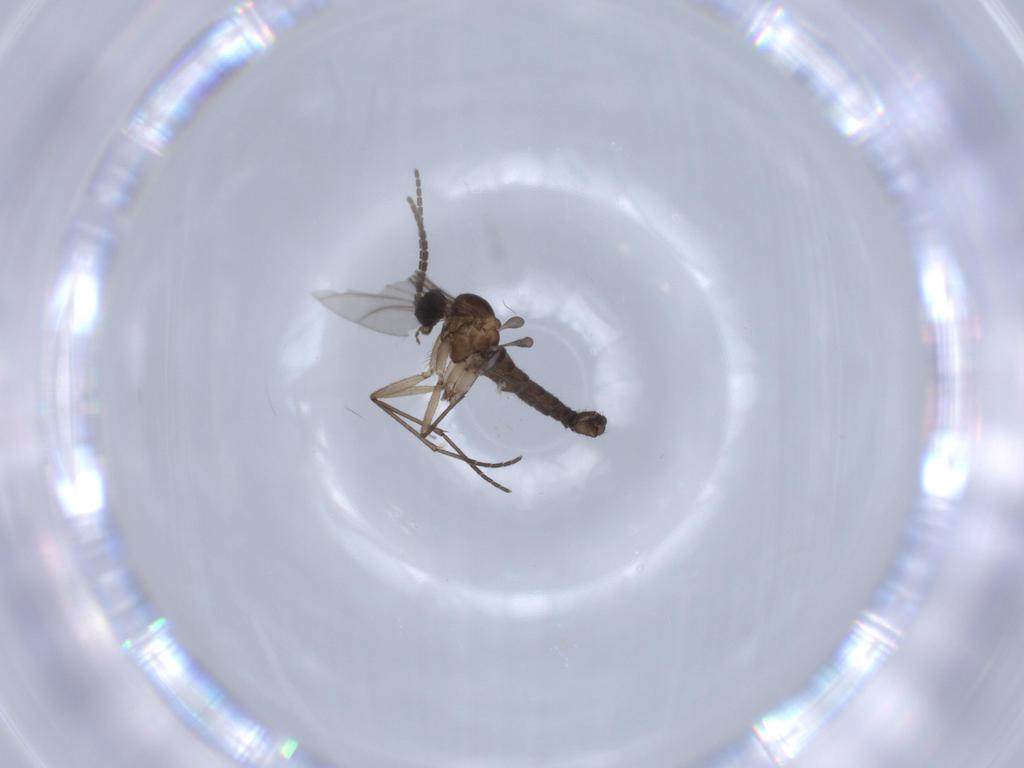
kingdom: Animalia
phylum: Arthropoda
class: Insecta
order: Diptera
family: Sciaridae
